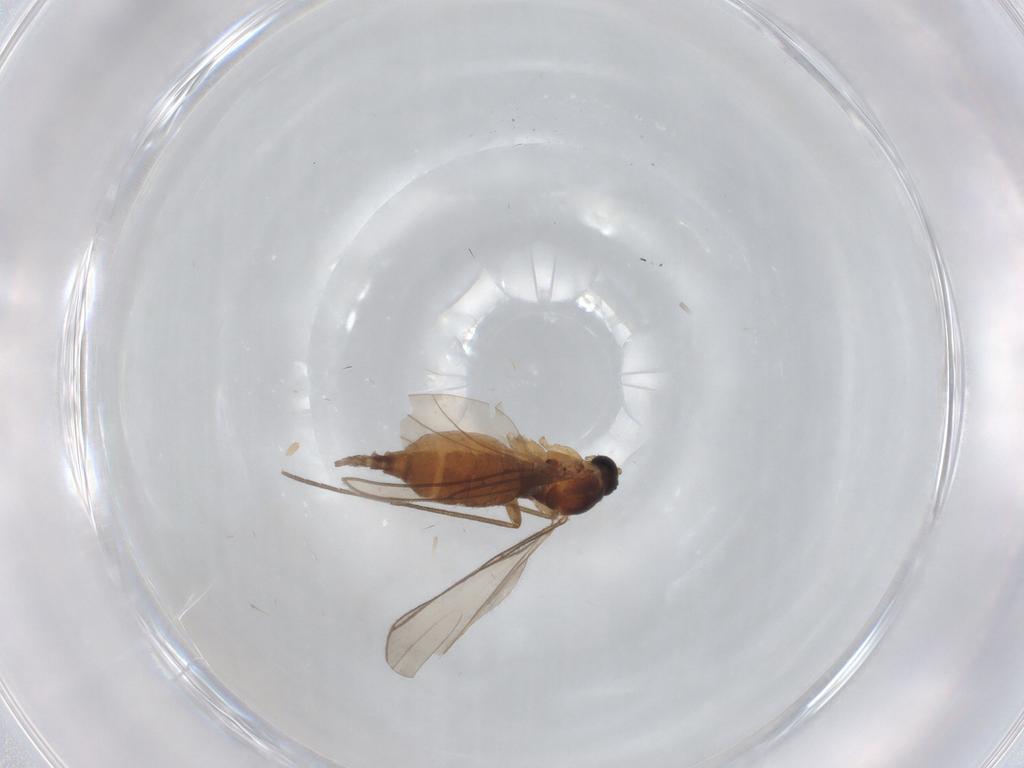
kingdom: Animalia
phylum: Arthropoda
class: Insecta
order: Diptera
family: Sciaridae
